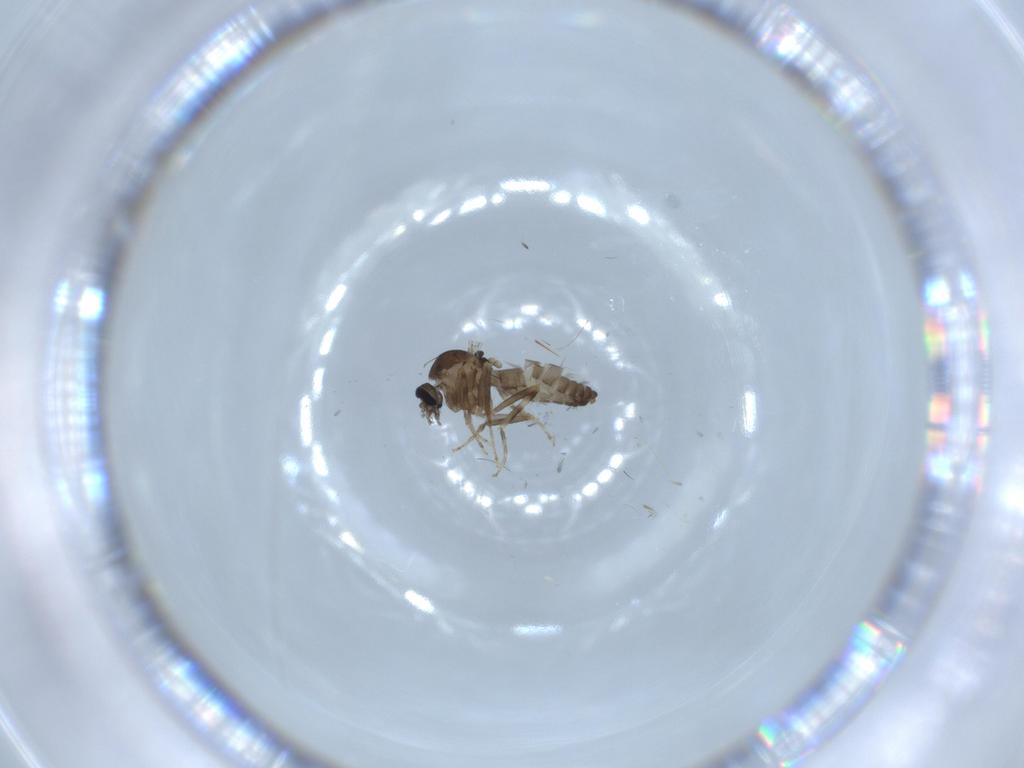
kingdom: Animalia
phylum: Arthropoda
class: Insecta
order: Diptera
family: Ceratopogonidae
